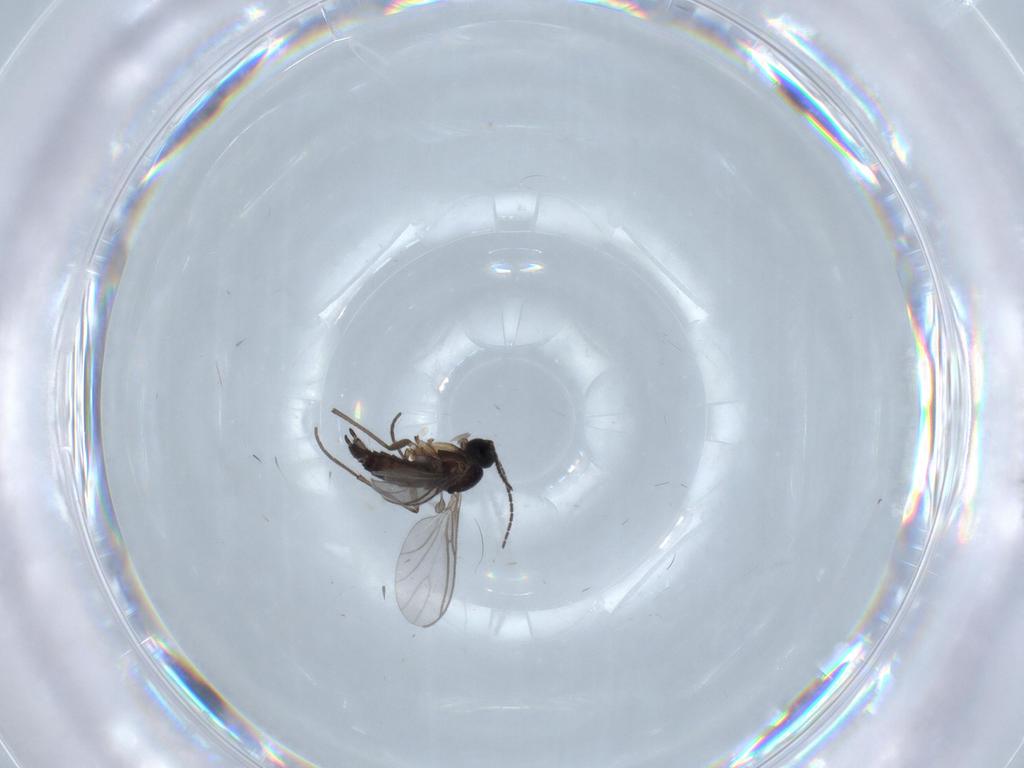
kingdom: Animalia
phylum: Arthropoda
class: Insecta
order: Diptera
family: Sciaridae
